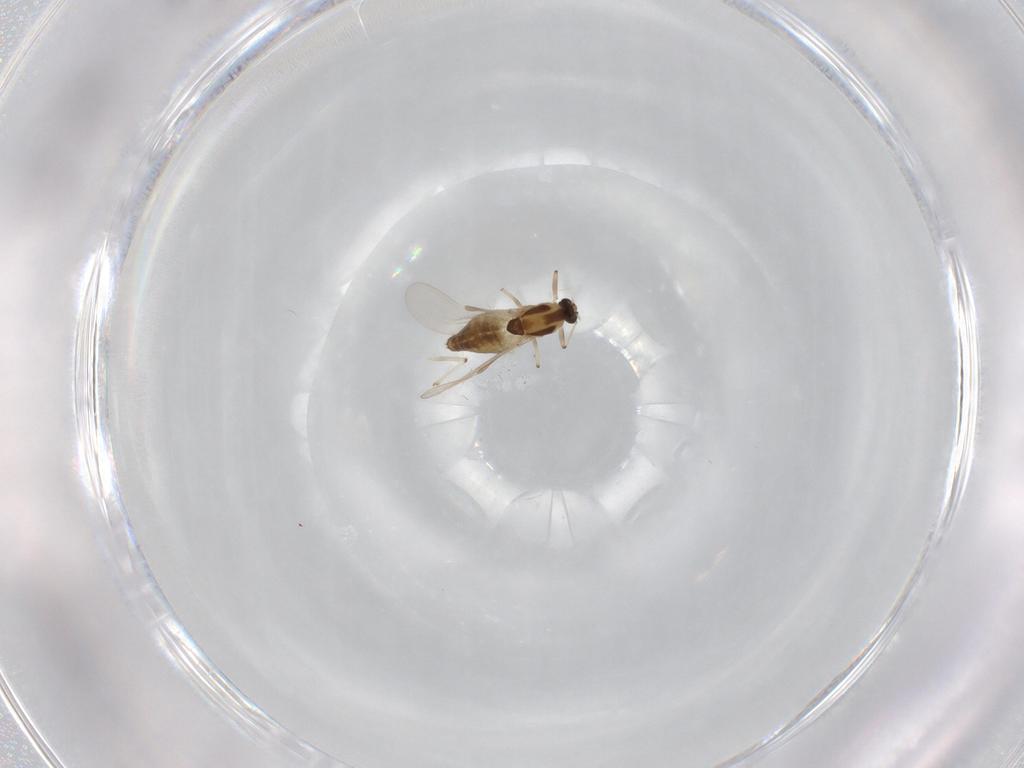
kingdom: Animalia
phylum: Arthropoda
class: Insecta
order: Diptera
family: Chironomidae
